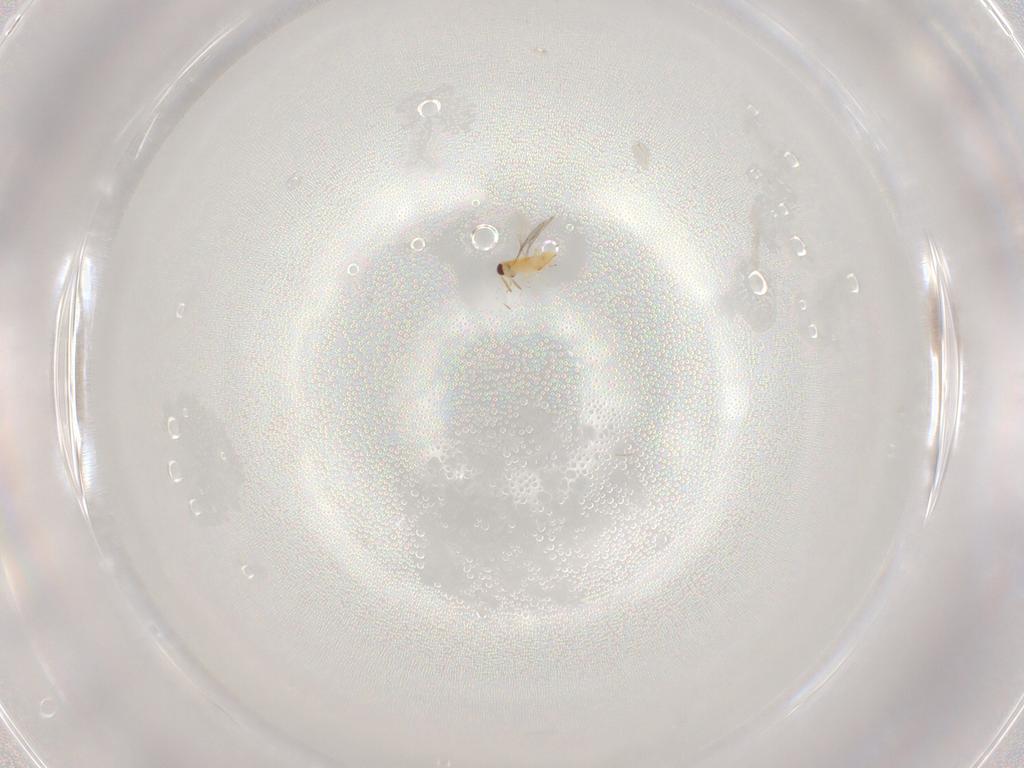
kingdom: Animalia
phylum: Arthropoda
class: Insecta
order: Hymenoptera
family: Aphelinidae
